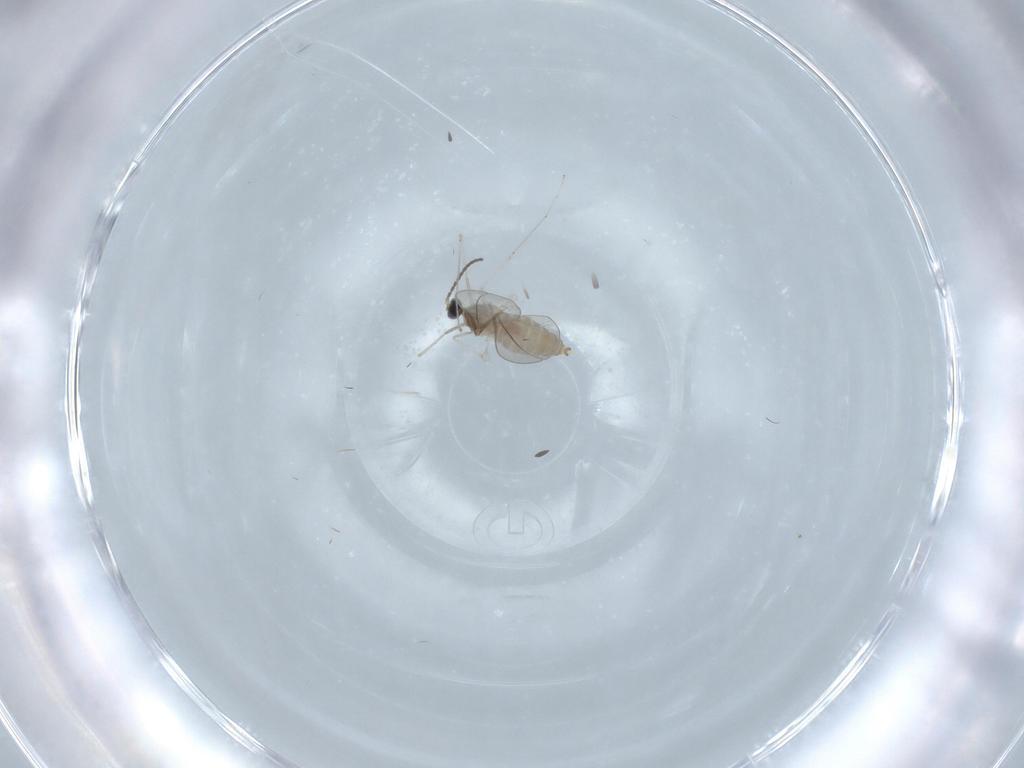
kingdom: Animalia
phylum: Arthropoda
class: Insecta
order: Diptera
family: Cecidomyiidae
